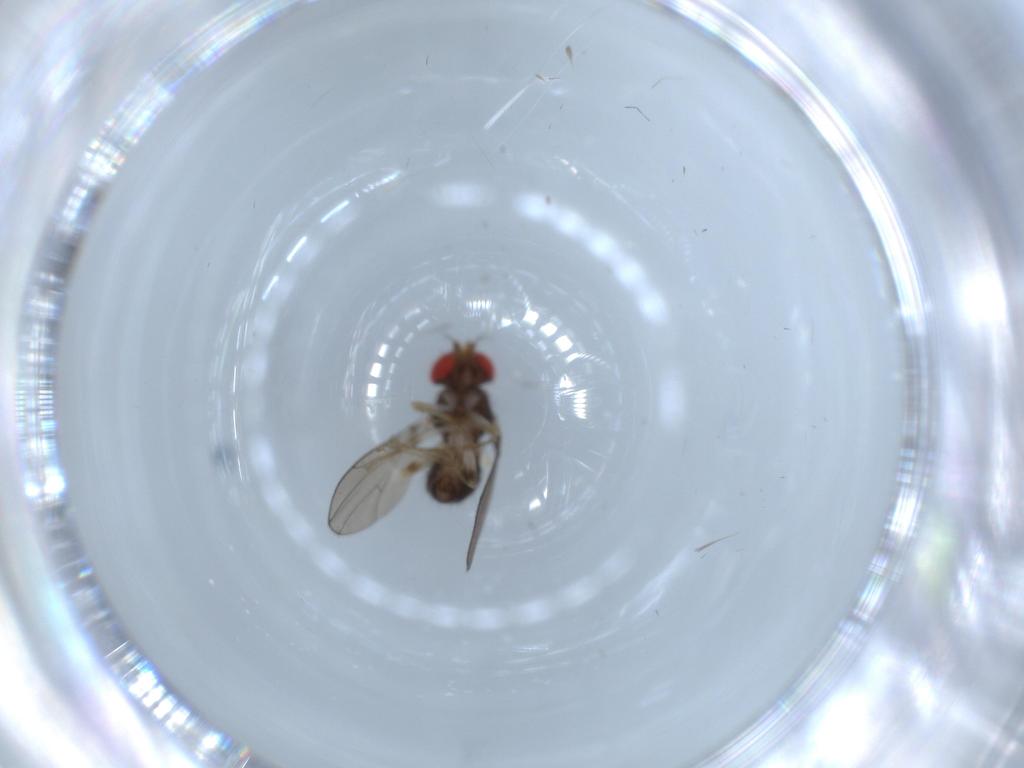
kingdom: Animalia
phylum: Arthropoda
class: Insecta
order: Diptera
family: Drosophilidae
